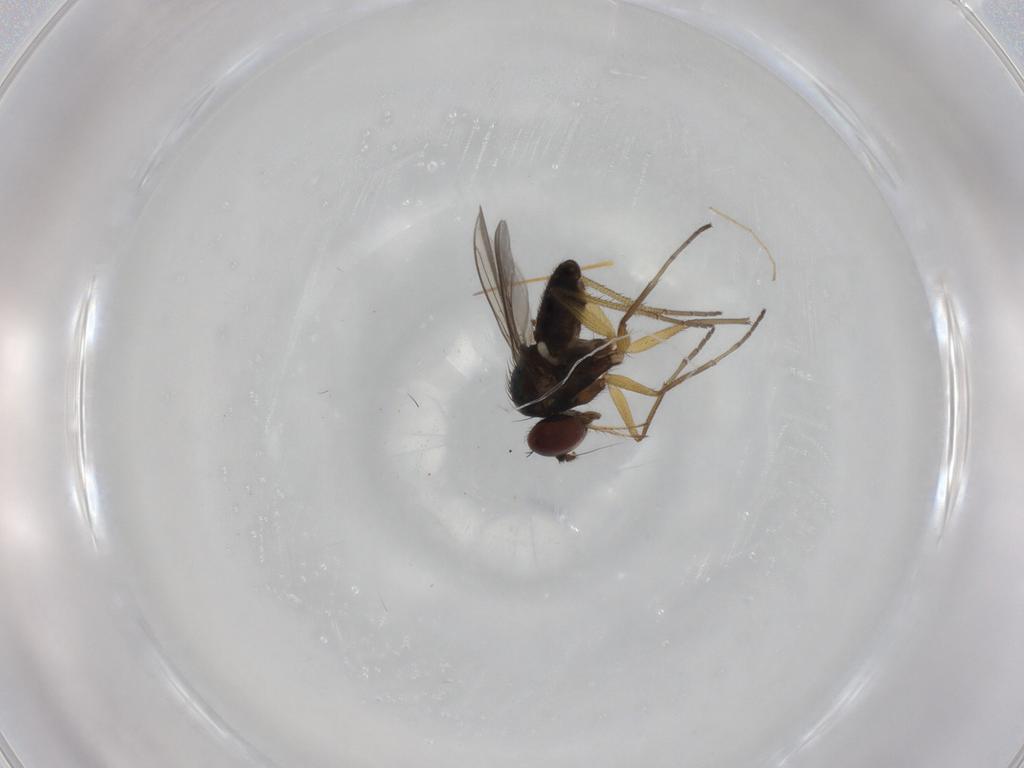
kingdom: Animalia
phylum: Arthropoda
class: Insecta
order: Diptera
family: Dolichopodidae
